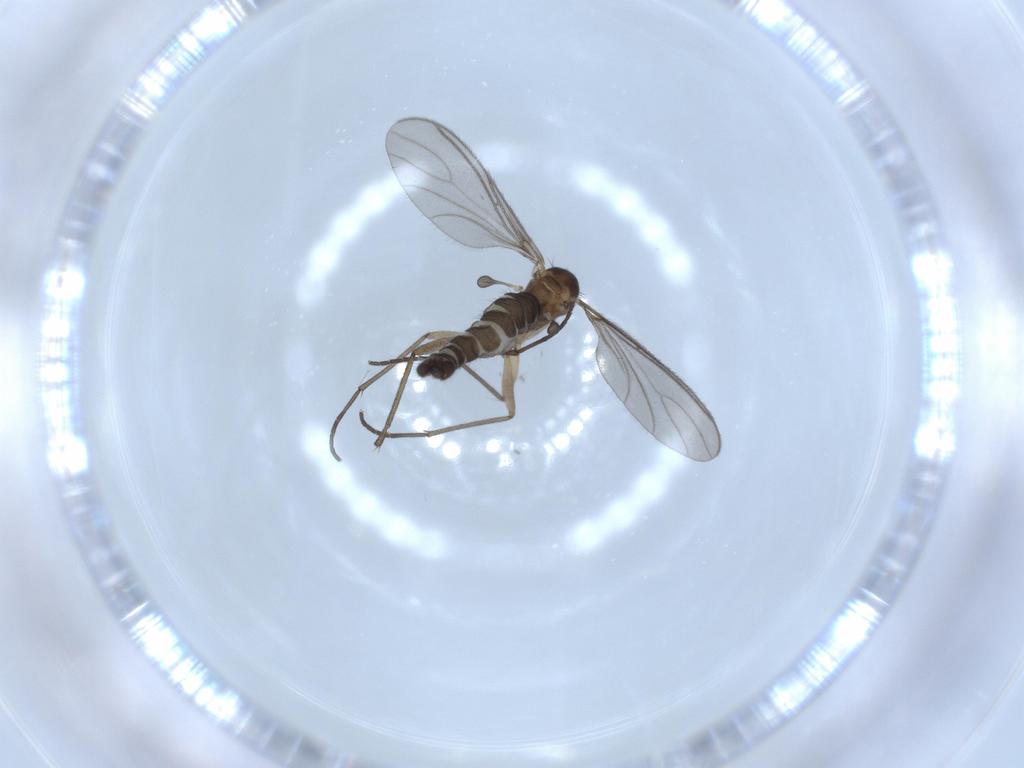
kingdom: Animalia
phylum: Arthropoda
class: Insecta
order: Diptera
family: Sciaridae
